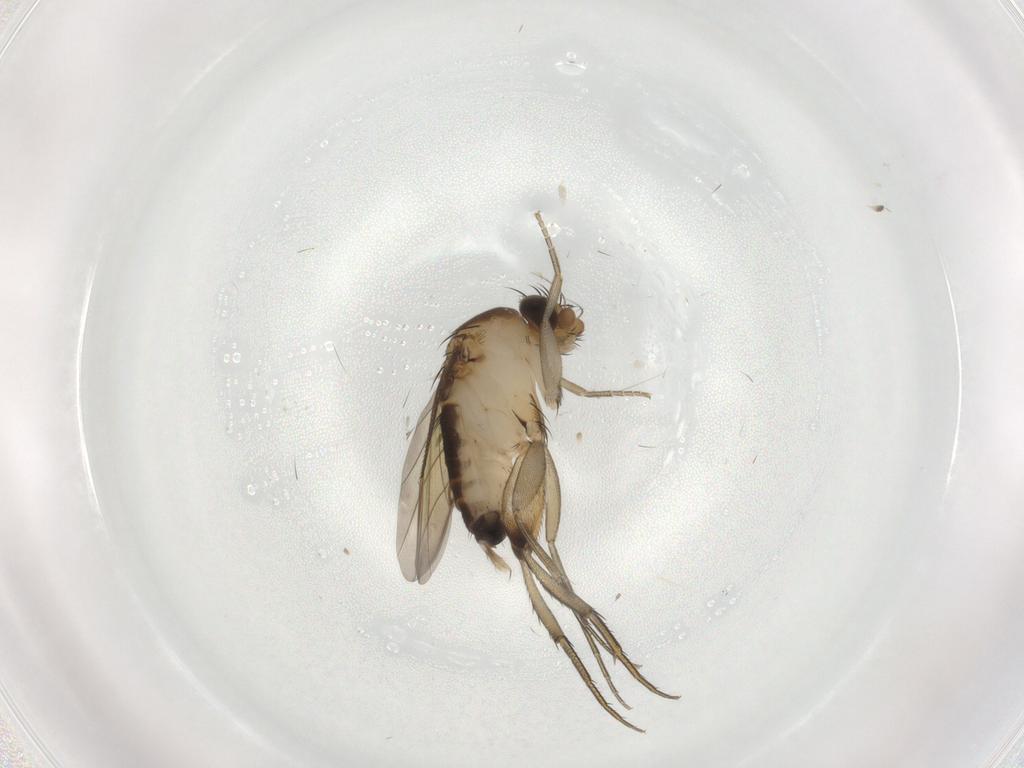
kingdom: Animalia
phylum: Arthropoda
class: Insecta
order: Diptera
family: Phoridae
